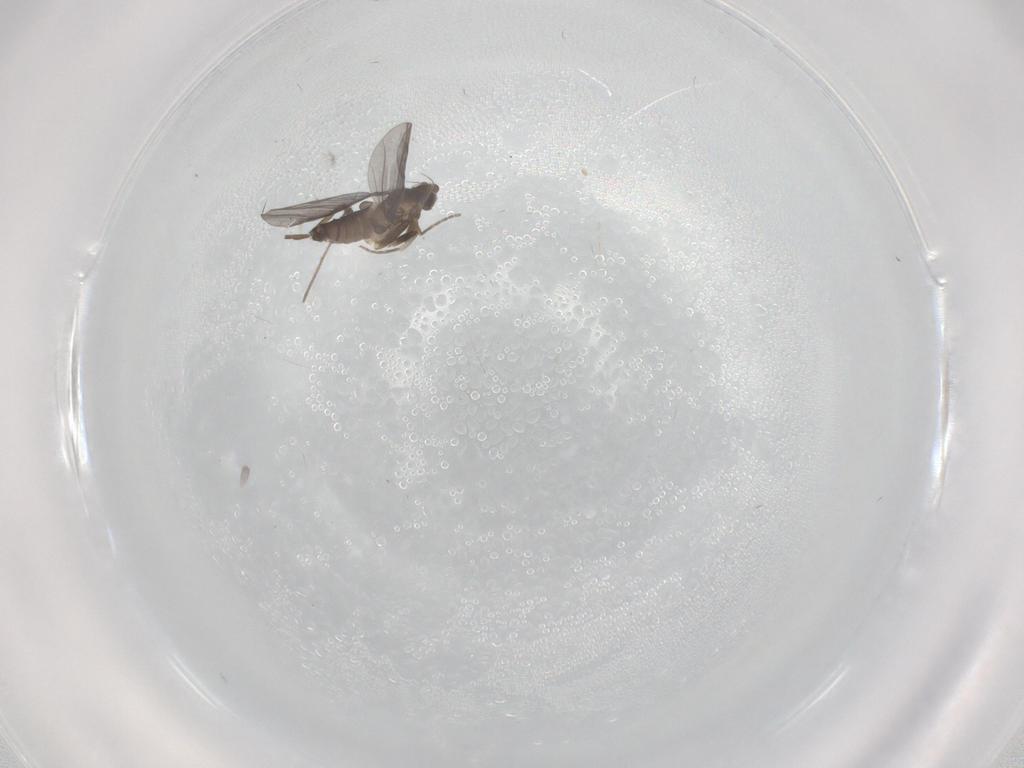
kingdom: Animalia
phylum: Arthropoda
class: Insecta
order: Diptera
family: Phoridae
